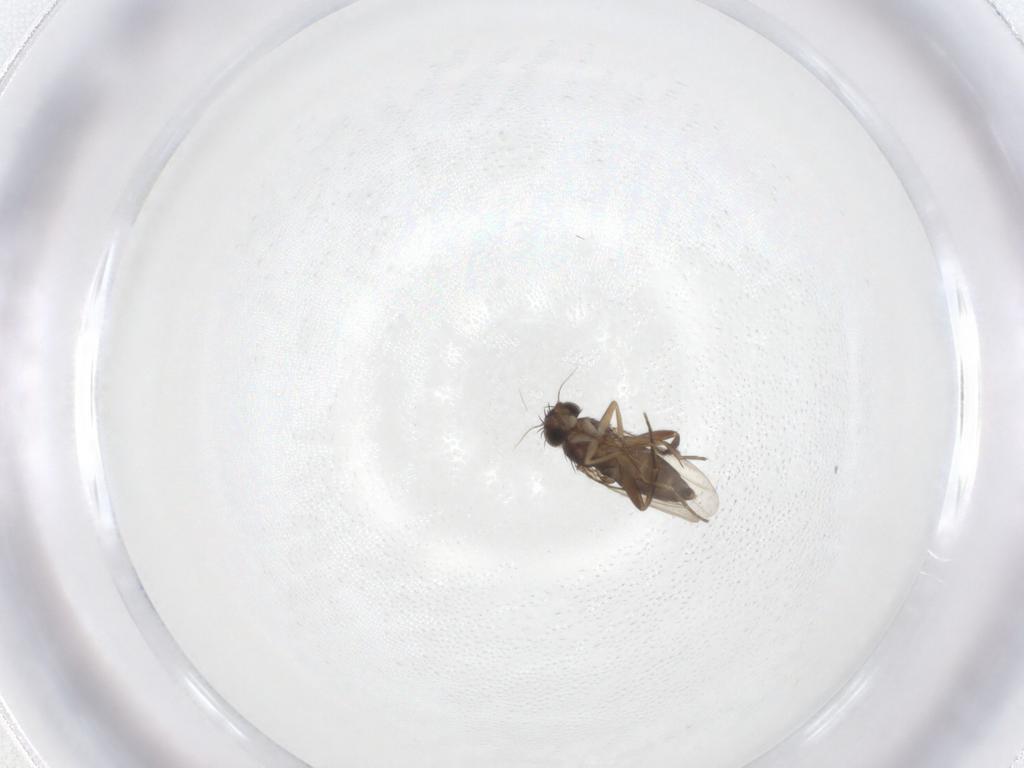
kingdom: Animalia
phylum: Arthropoda
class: Insecta
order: Diptera
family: Phoridae
